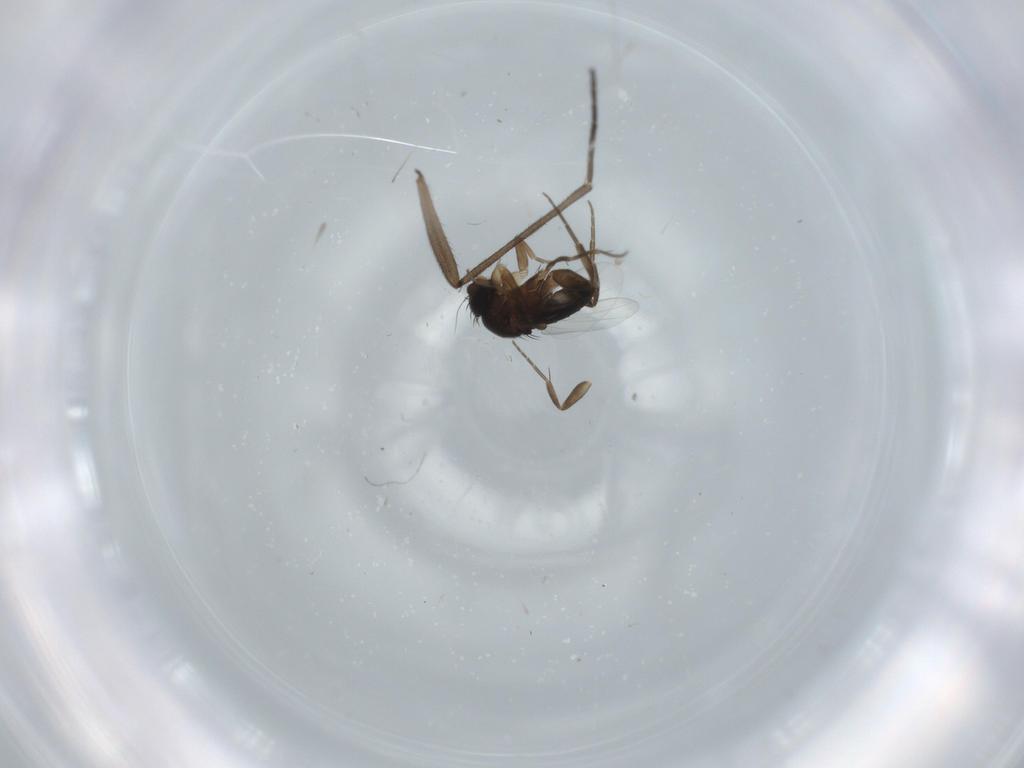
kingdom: Animalia
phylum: Arthropoda
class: Insecta
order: Diptera
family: Phoridae
